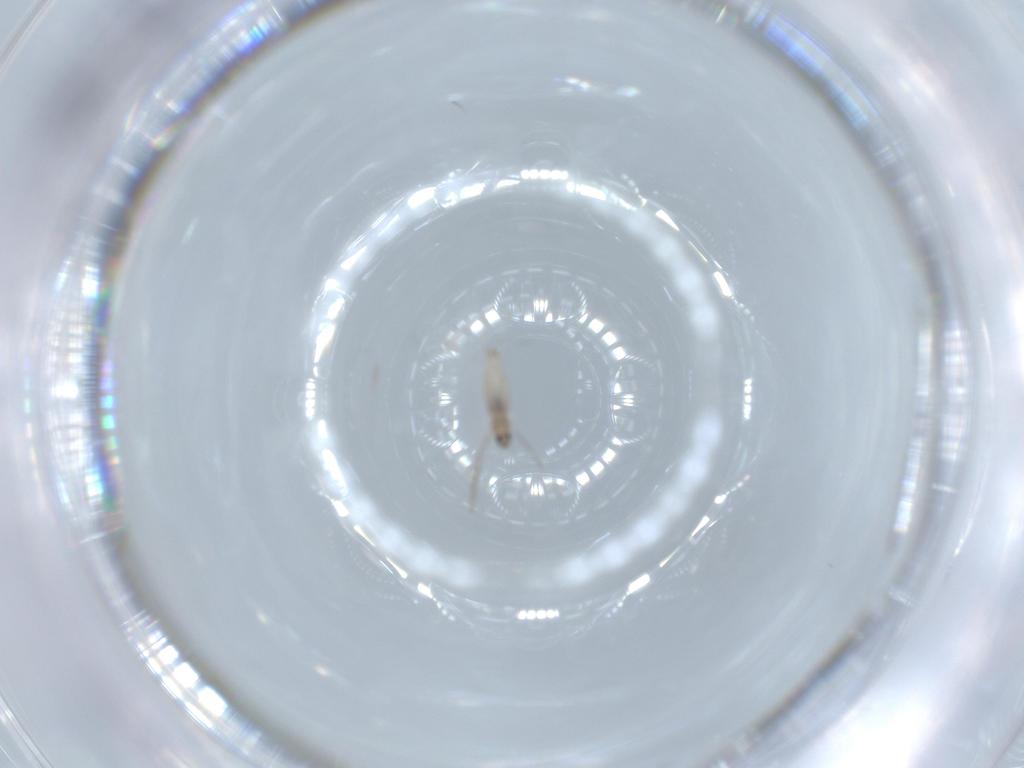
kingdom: Animalia
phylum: Arthropoda
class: Insecta
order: Diptera
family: Cecidomyiidae
